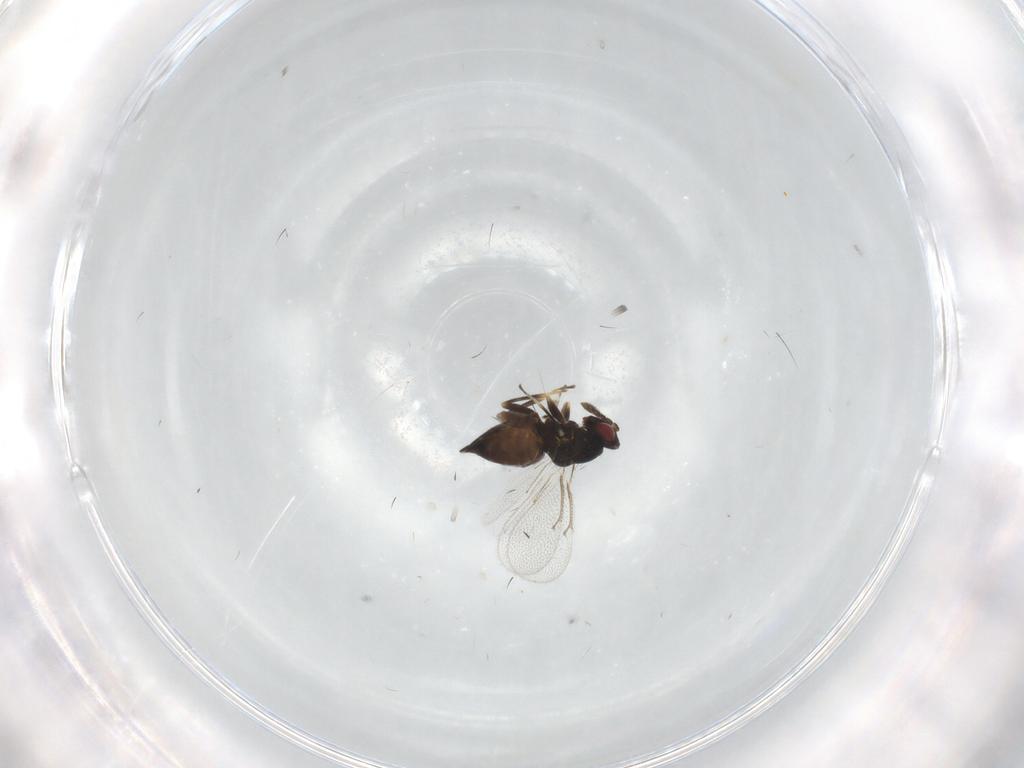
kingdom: Animalia
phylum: Arthropoda
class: Insecta
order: Hymenoptera
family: Eulophidae
